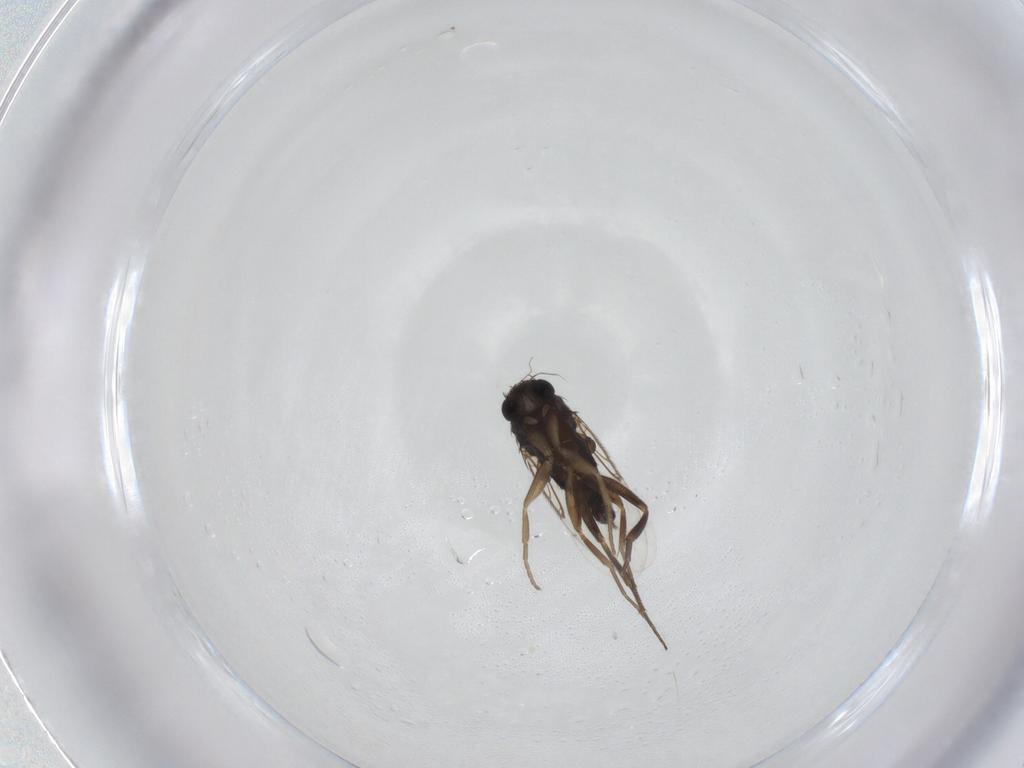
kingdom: Animalia
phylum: Arthropoda
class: Insecta
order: Diptera
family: Phoridae
